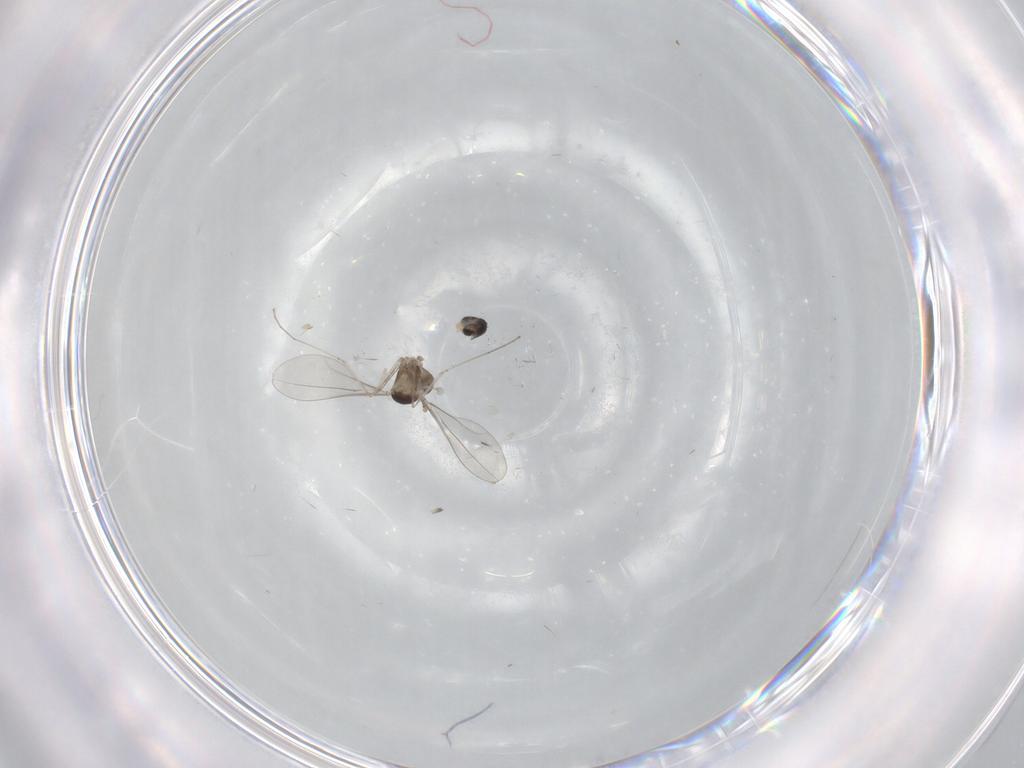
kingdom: Animalia
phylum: Arthropoda
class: Insecta
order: Diptera
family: Cecidomyiidae
